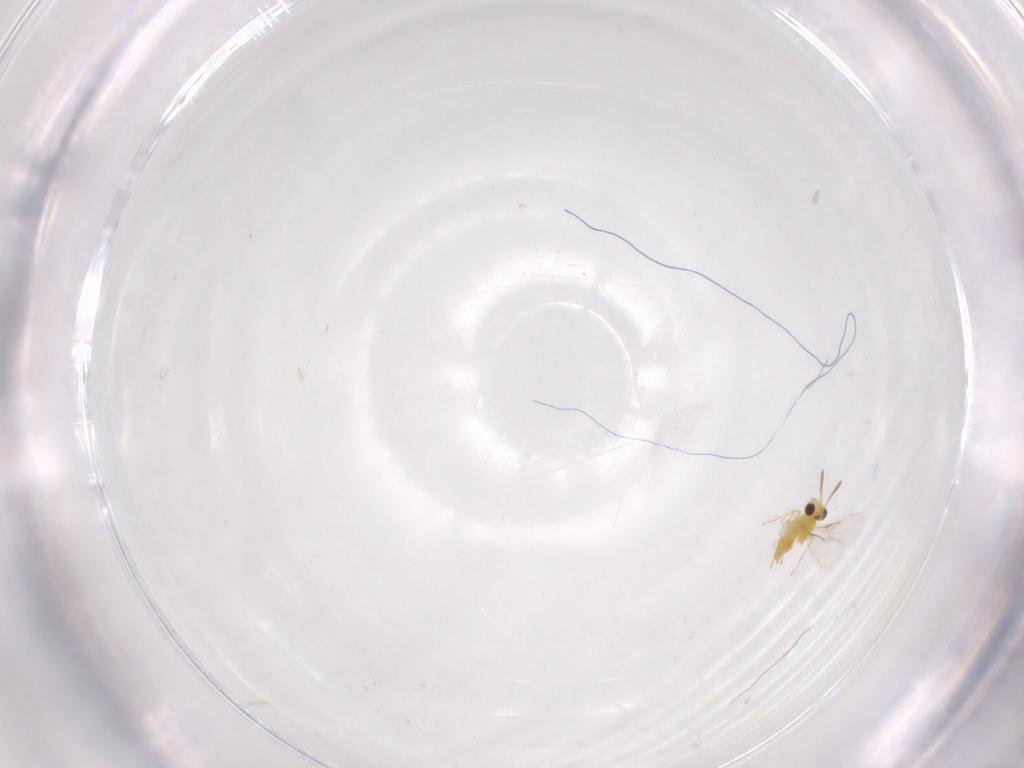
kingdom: Animalia
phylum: Arthropoda
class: Insecta
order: Hymenoptera
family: Aphelinidae
